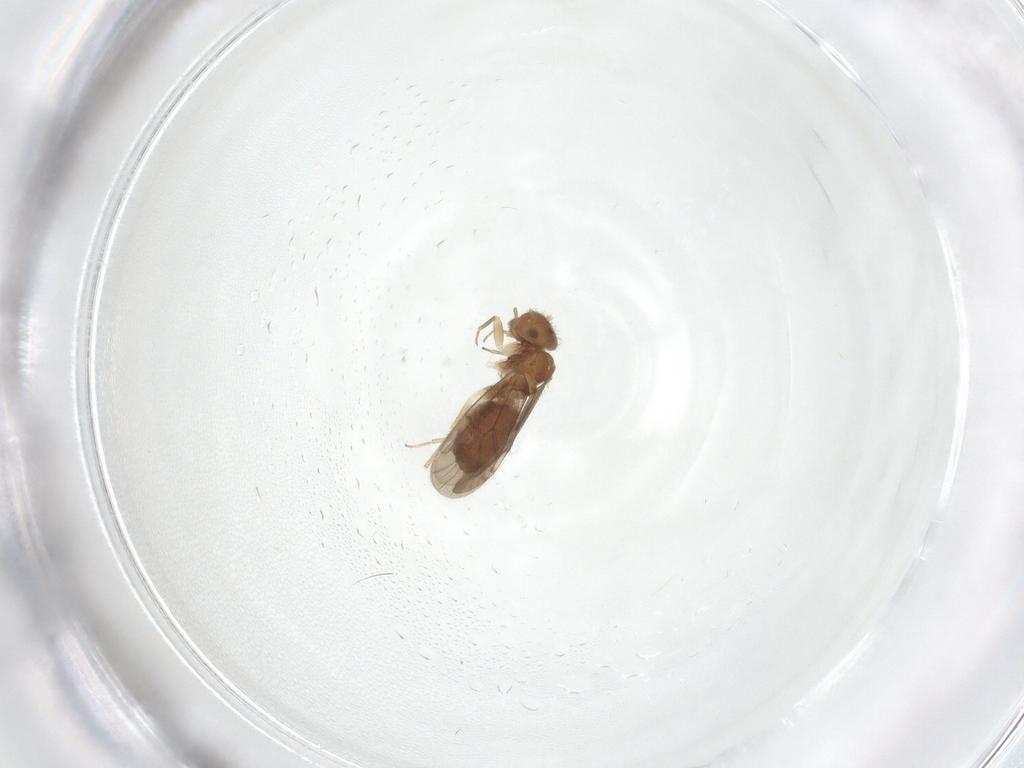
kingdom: Animalia
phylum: Arthropoda
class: Insecta
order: Psocodea
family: Ectopsocidae
